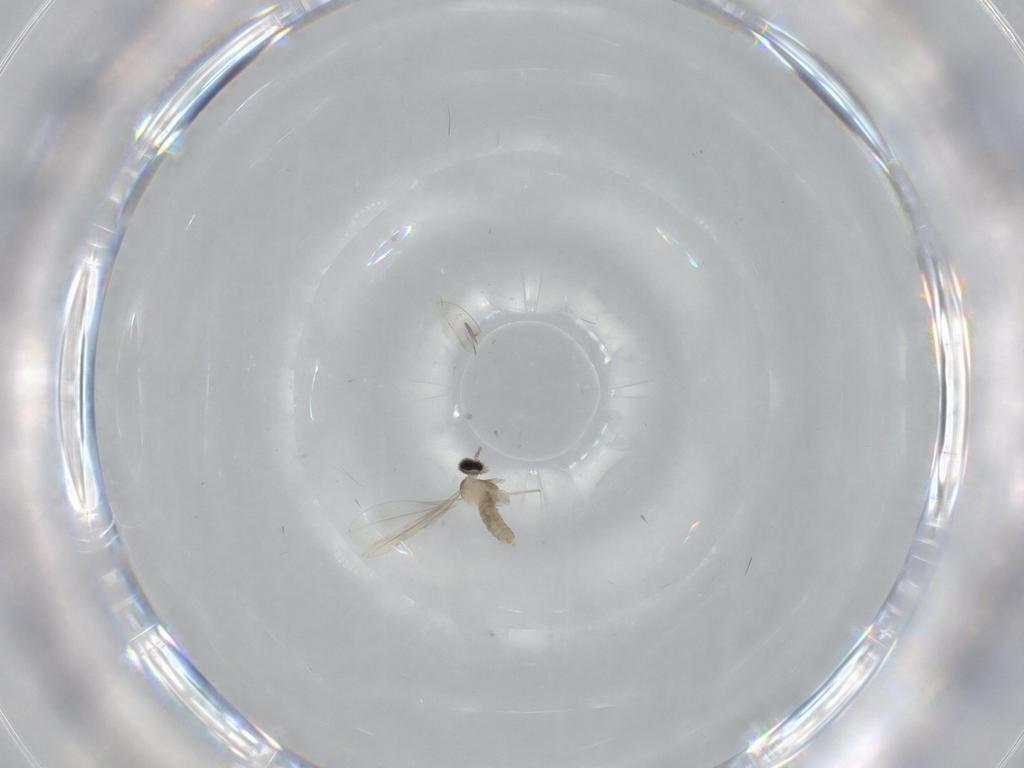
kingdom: Animalia
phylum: Arthropoda
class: Insecta
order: Diptera
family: Cecidomyiidae
